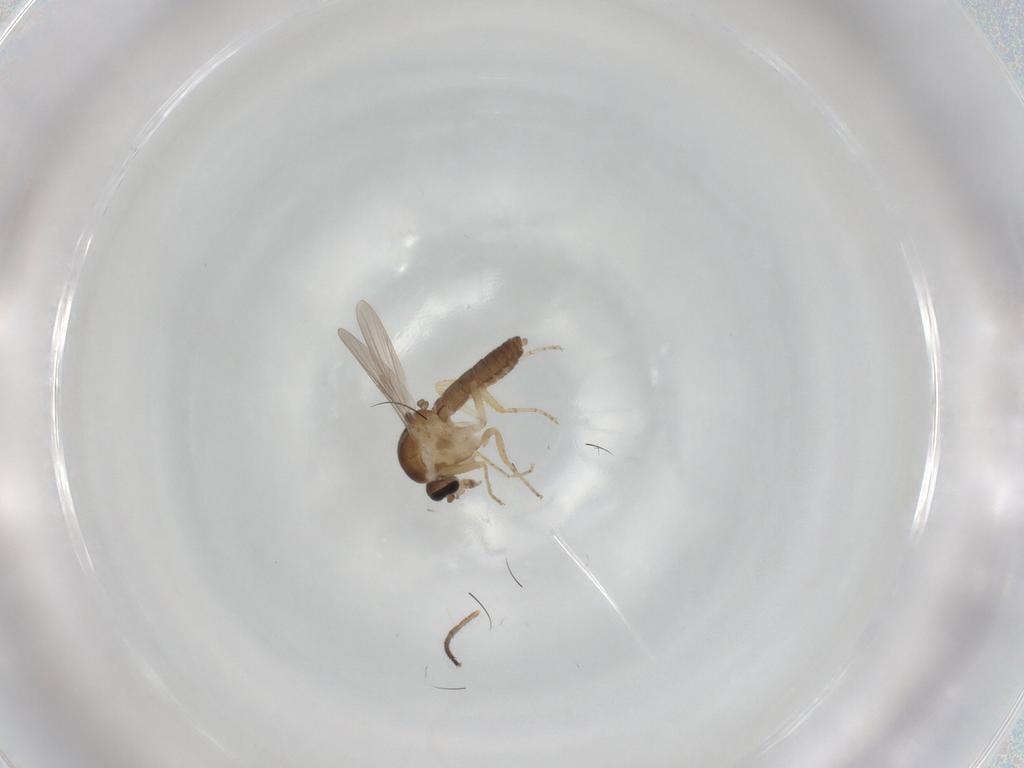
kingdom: Animalia
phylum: Arthropoda
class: Insecta
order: Diptera
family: Ceratopogonidae
